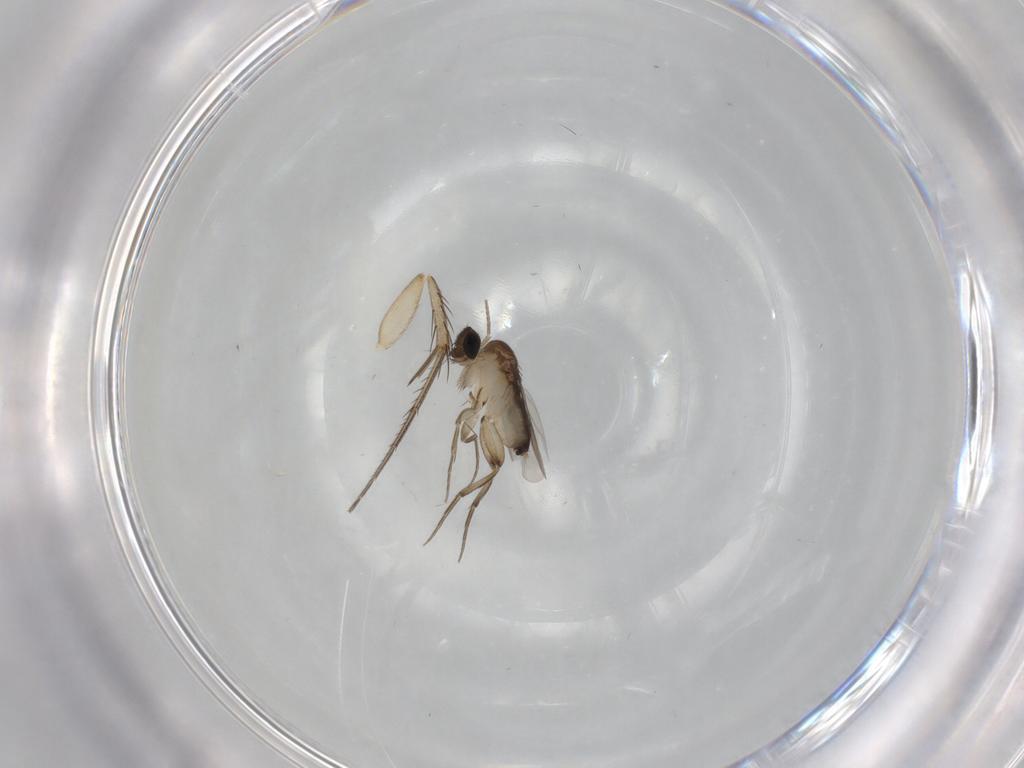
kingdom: Animalia
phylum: Arthropoda
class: Insecta
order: Diptera
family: Phoridae
